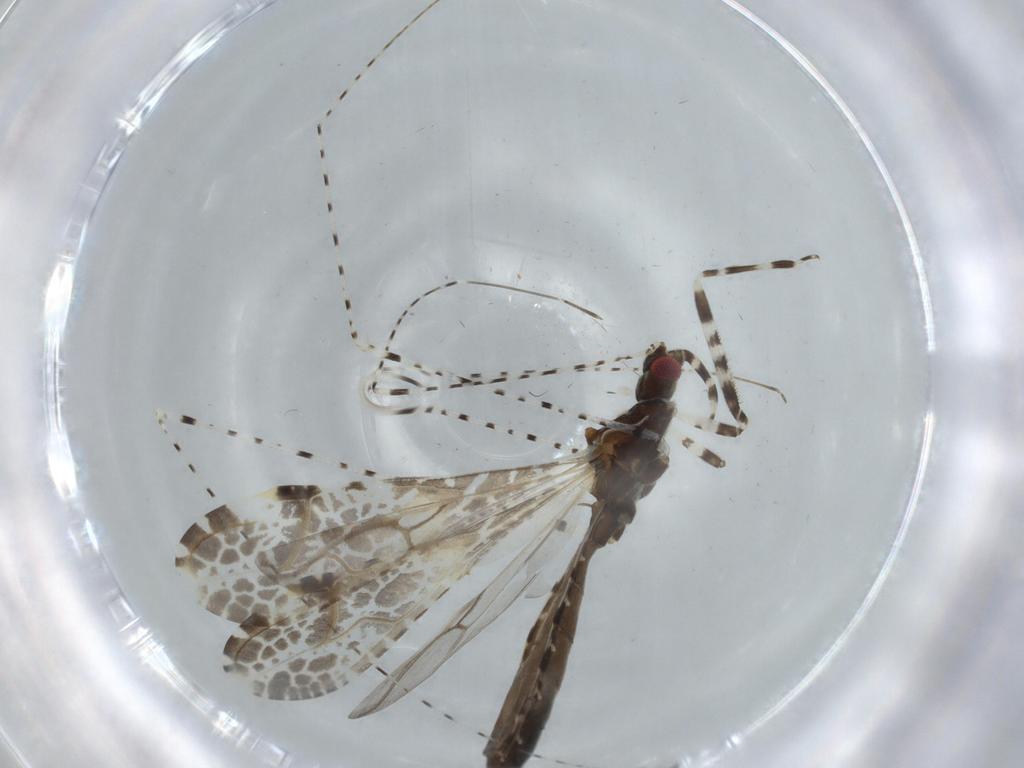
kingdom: Animalia
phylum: Arthropoda
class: Insecta
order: Hemiptera
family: Reduviidae
